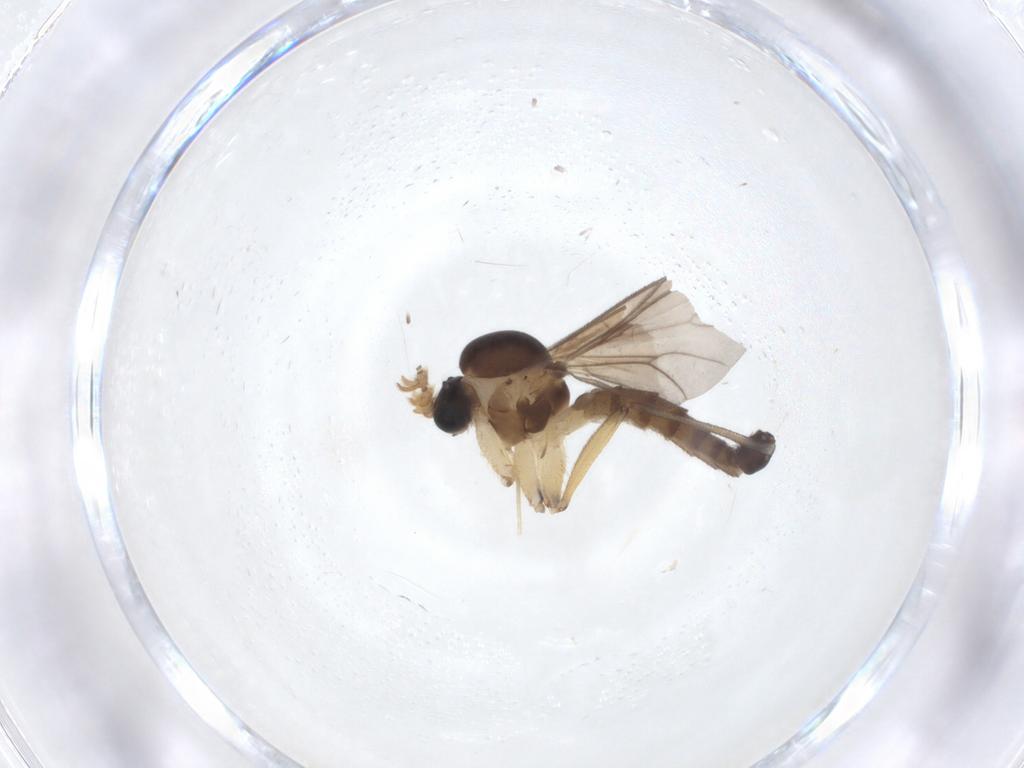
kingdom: Animalia
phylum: Arthropoda
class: Insecta
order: Diptera
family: Mycetophilidae
